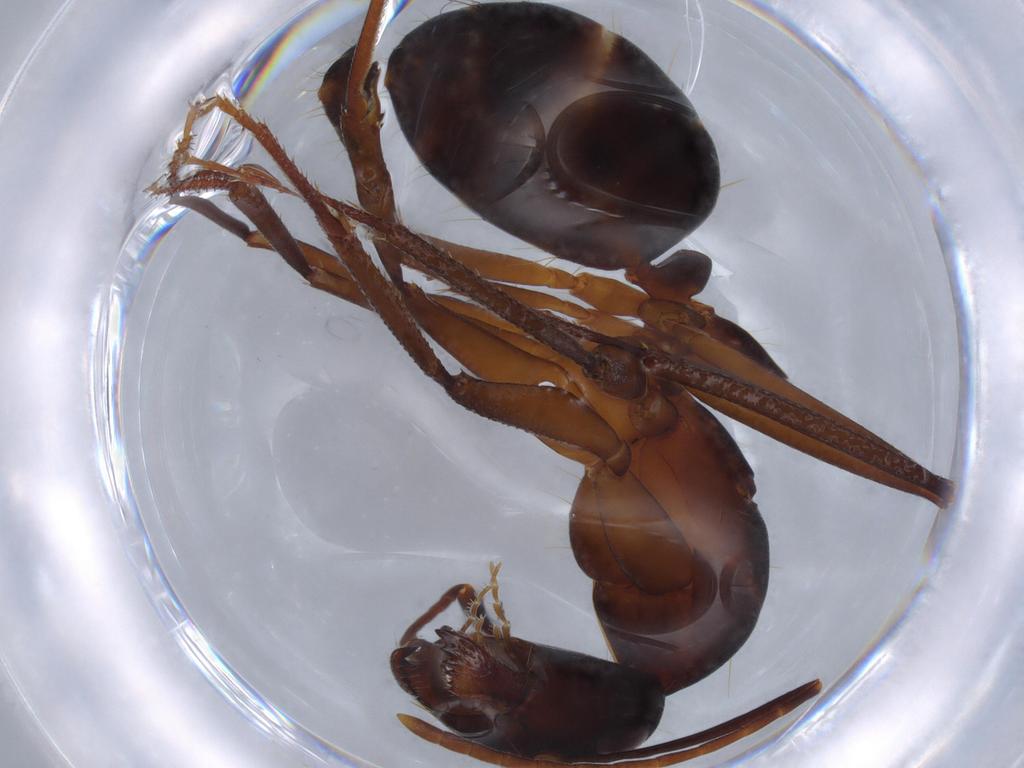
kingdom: Animalia
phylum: Arthropoda
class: Insecta
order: Hymenoptera
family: Formicidae
